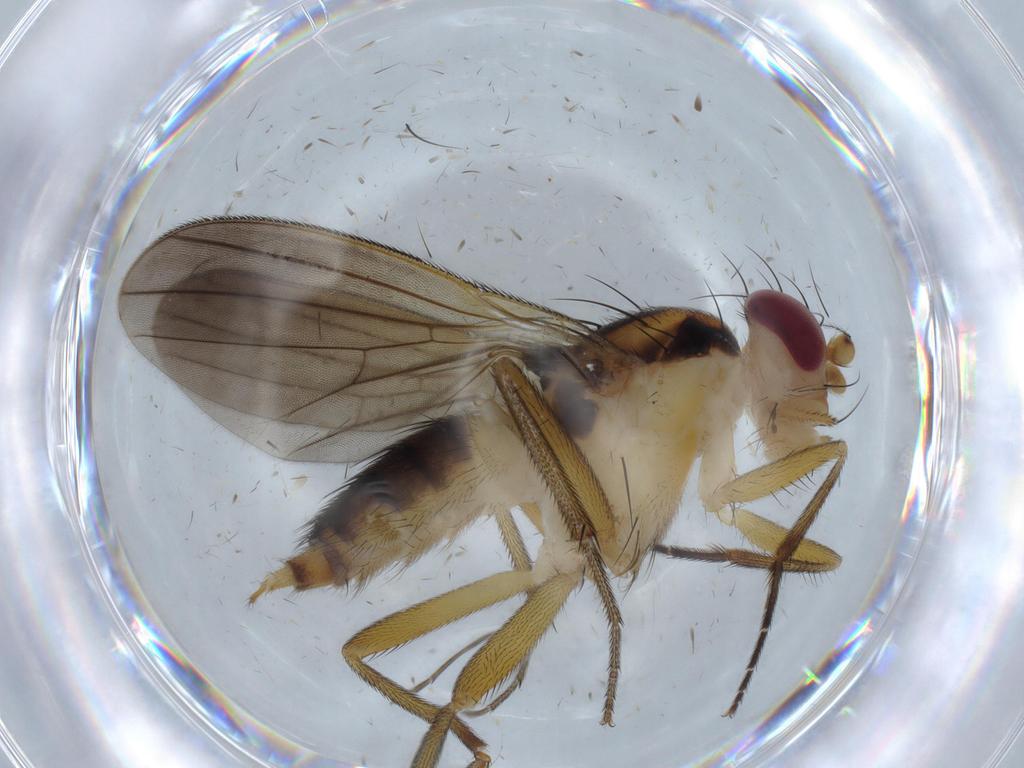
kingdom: Animalia
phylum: Arthropoda
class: Insecta
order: Diptera
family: Clusiidae
